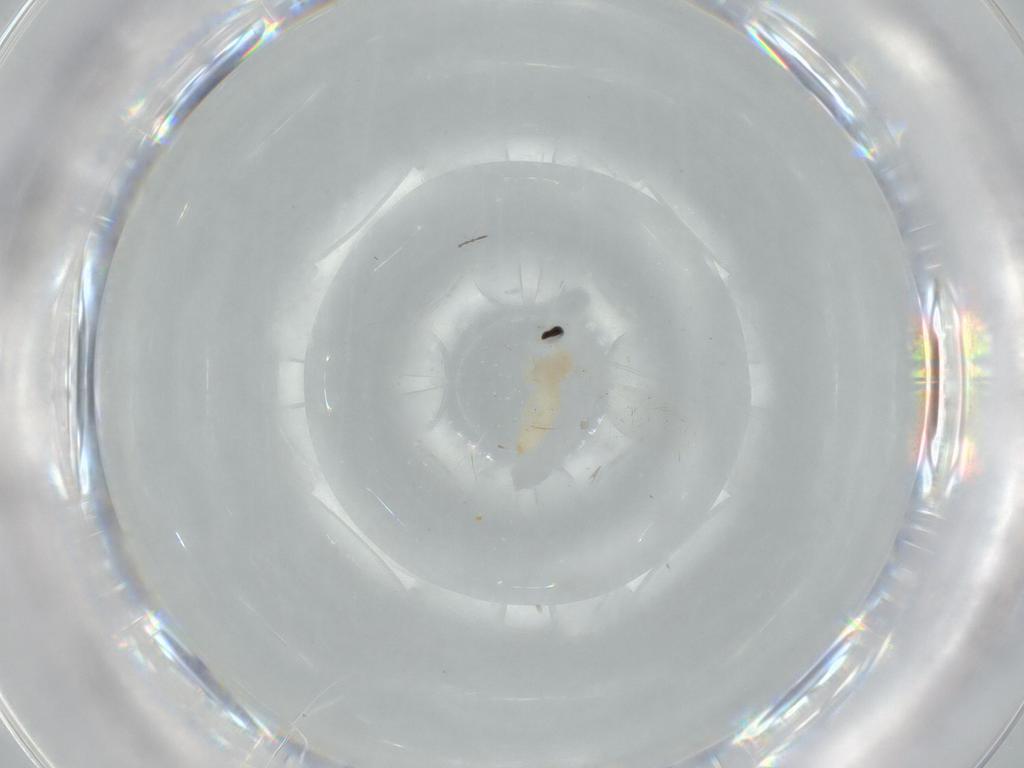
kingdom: Animalia
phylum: Arthropoda
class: Insecta
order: Diptera
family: Cecidomyiidae
